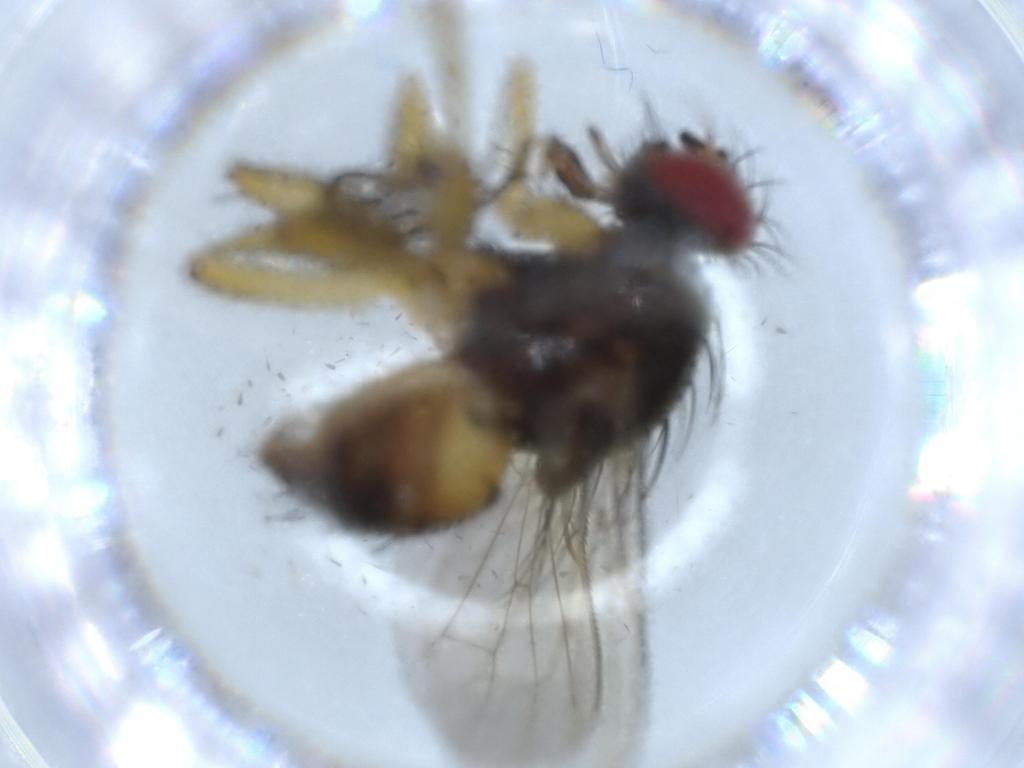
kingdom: Animalia
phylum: Arthropoda
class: Insecta
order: Diptera
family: Muscidae
